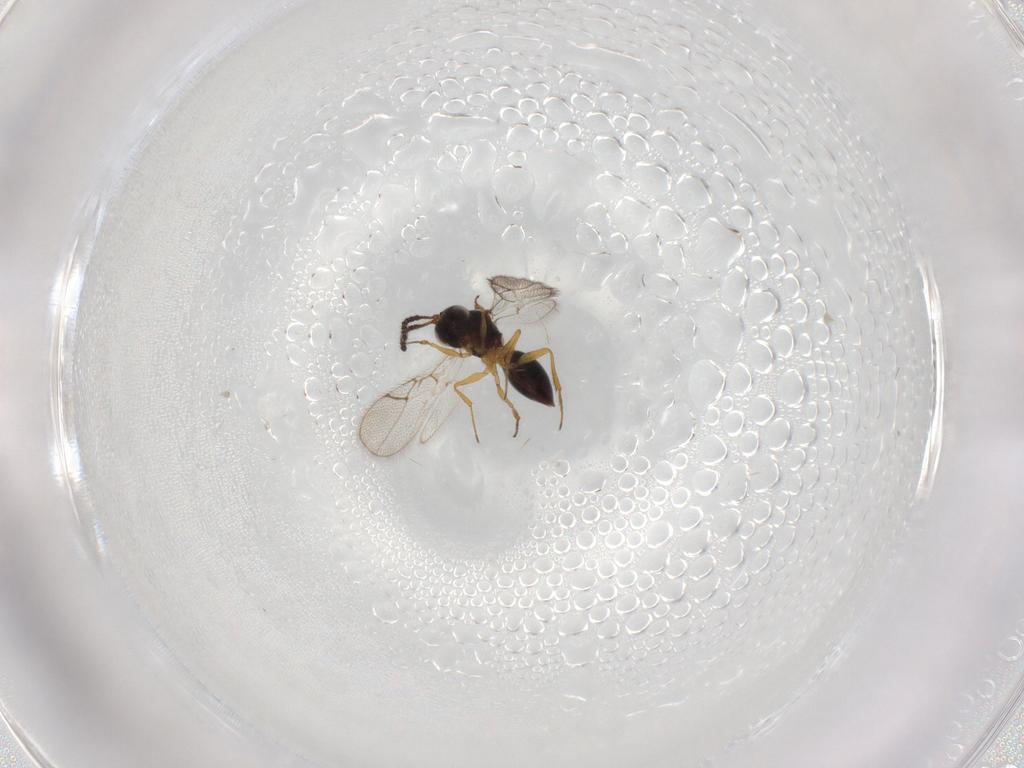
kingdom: Animalia
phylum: Arthropoda
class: Insecta
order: Hymenoptera
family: Figitidae
